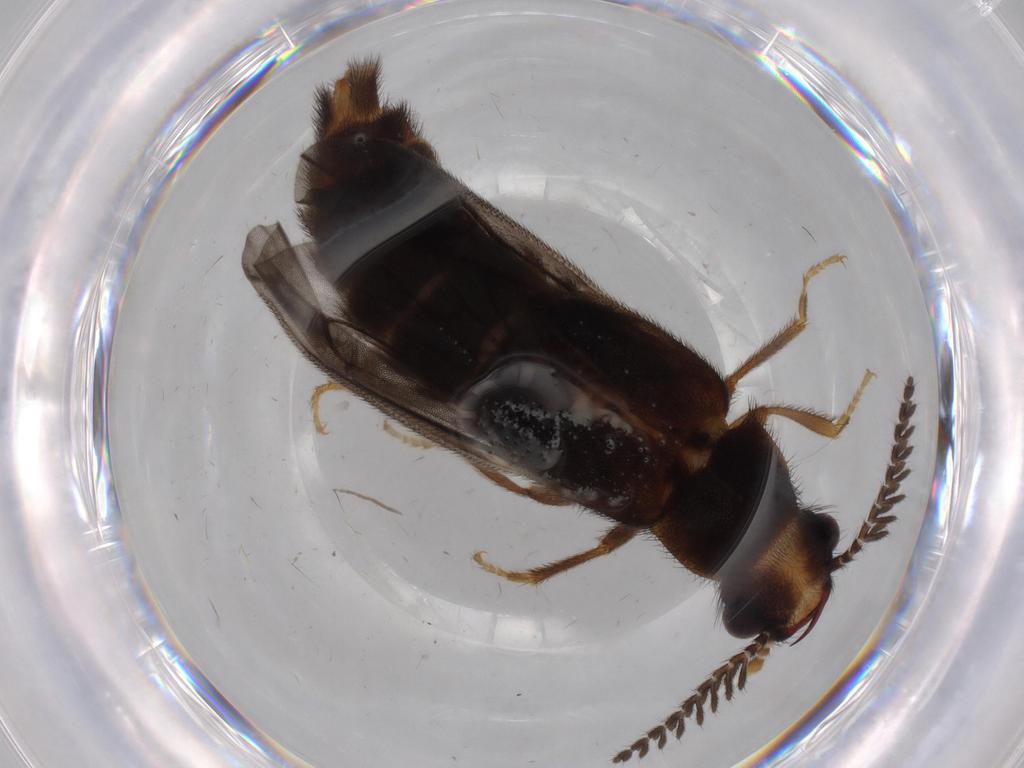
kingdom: Animalia
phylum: Arthropoda
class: Insecta
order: Coleoptera
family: Phengodidae
